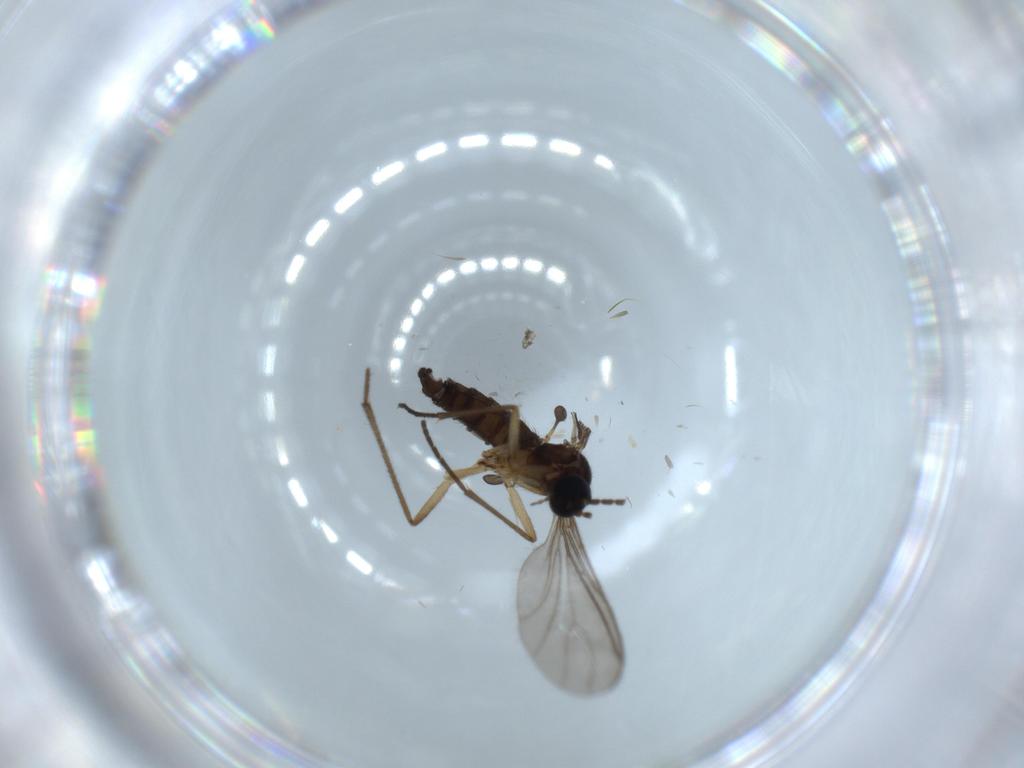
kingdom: Animalia
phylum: Arthropoda
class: Insecta
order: Diptera
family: Sciaridae
